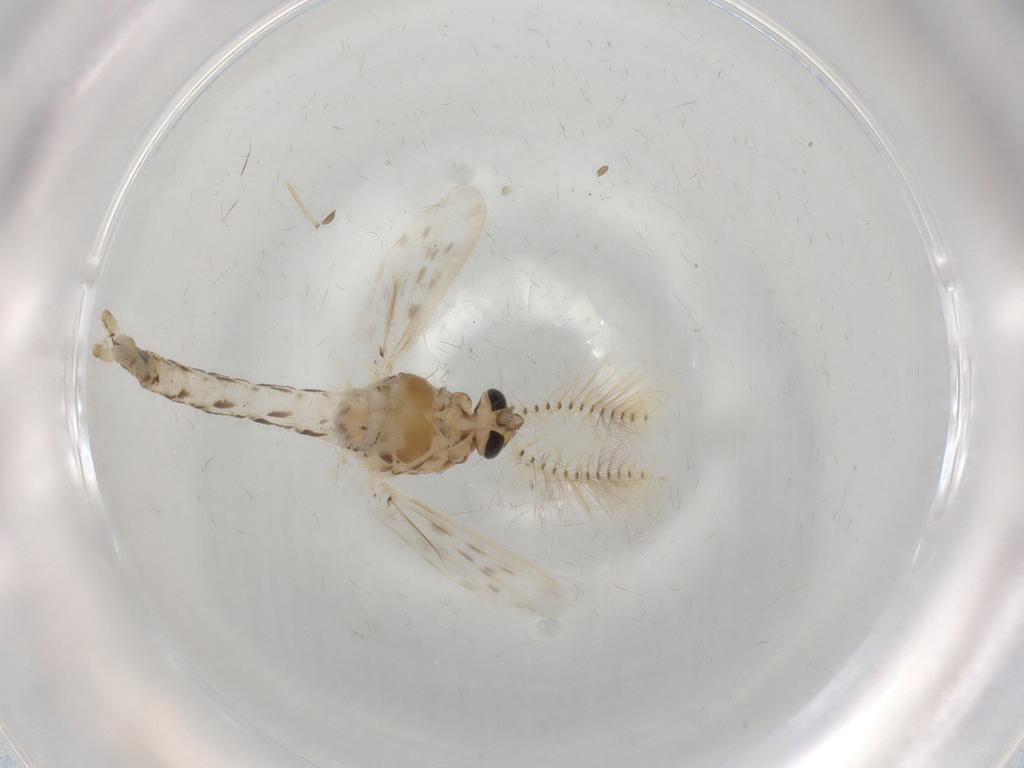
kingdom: Animalia
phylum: Arthropoda
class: Insecta
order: Diptera
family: Chaoboridae
